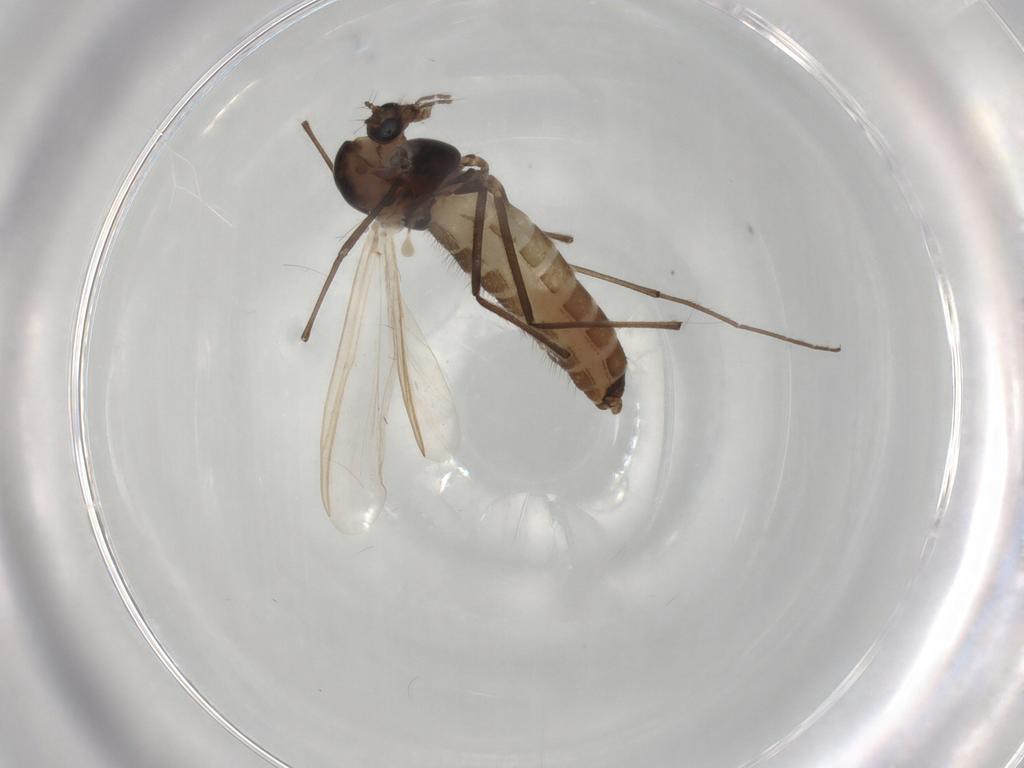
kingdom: Animalia
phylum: Arthropoda
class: Insecta
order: Diptera
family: Chironomidae
